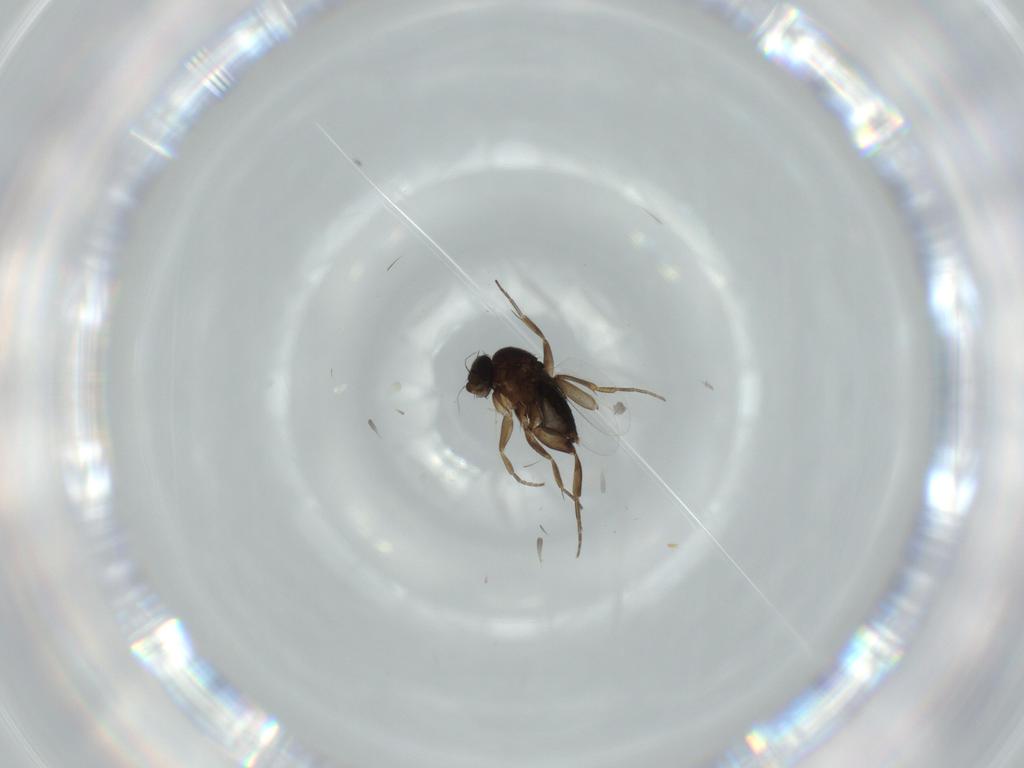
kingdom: Animalia
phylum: Arthropoda
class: Insecta
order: Diptera
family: Phoridae
